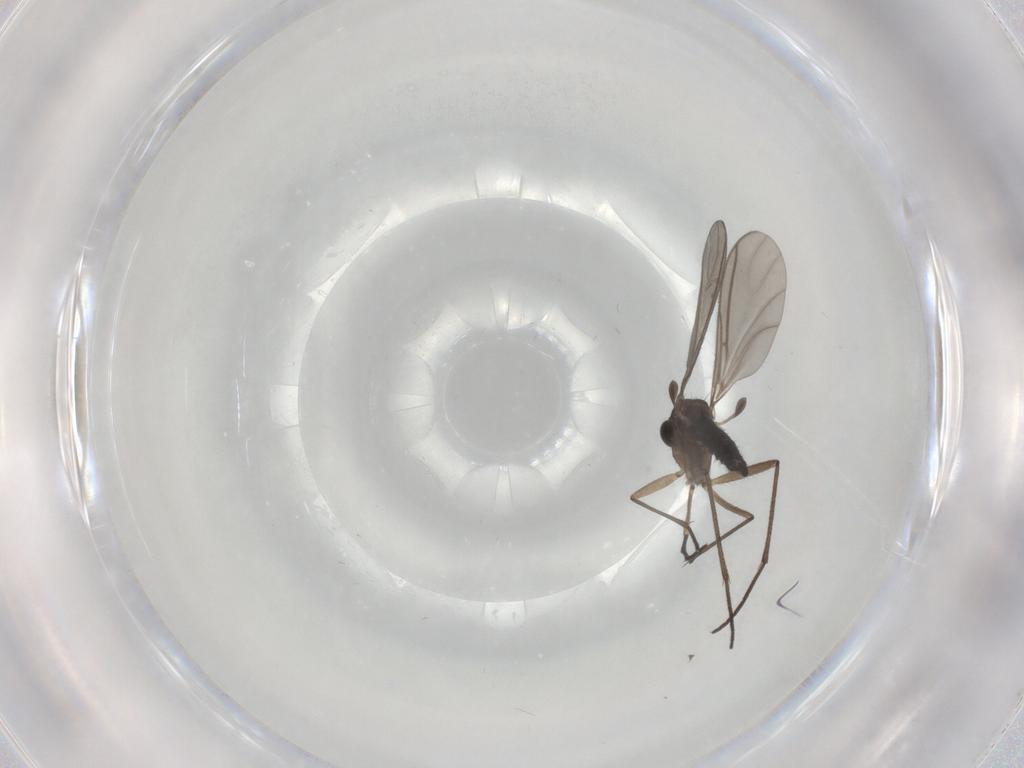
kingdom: Animalia
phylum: Arthropoda
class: Insecta
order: Diptera
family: Sciaridae
